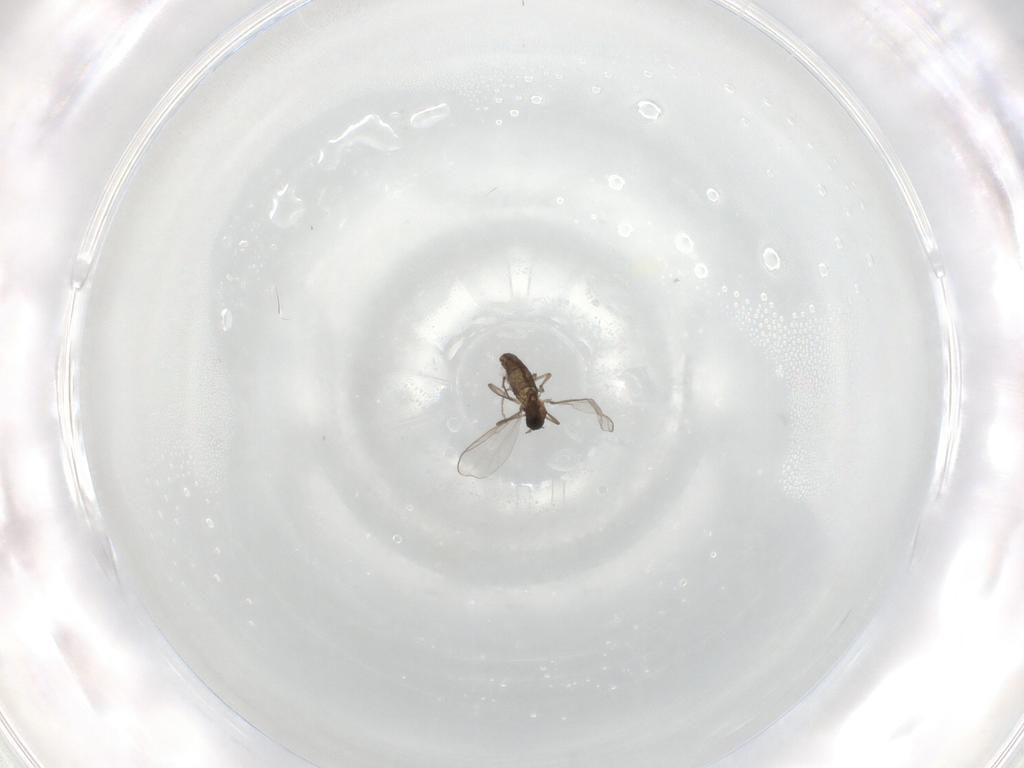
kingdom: Animalia
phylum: Arthropoda
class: Insecta
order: Diptera
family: Chironomidae
